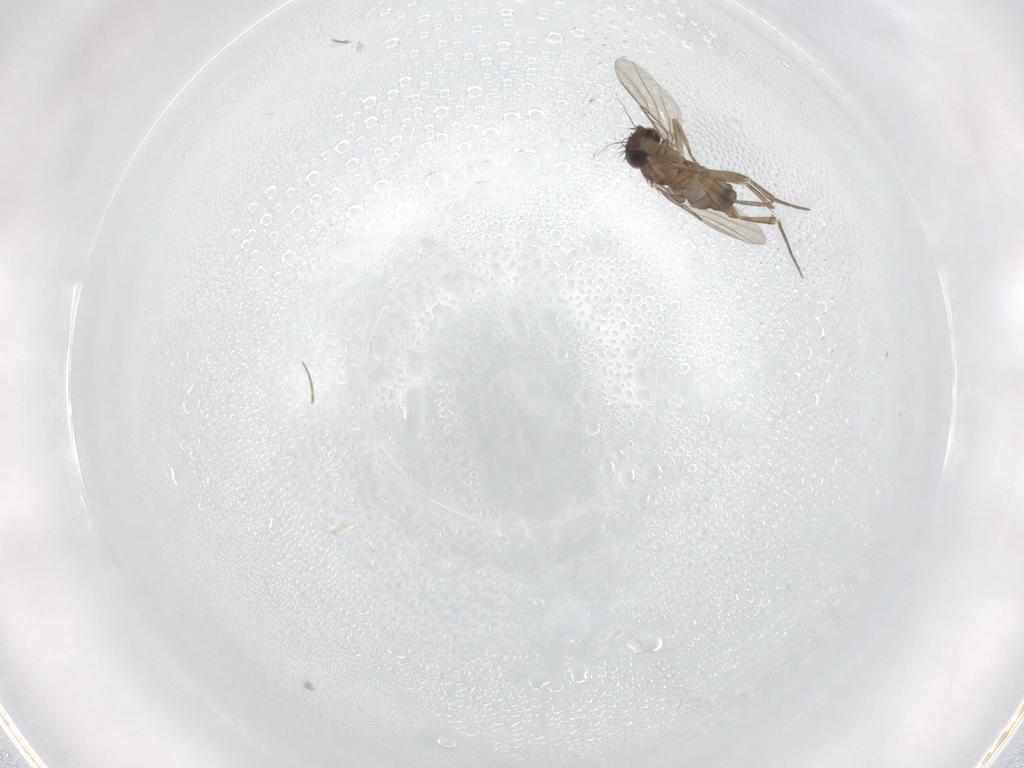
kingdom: Animalia
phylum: Arthropoda
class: Insecta
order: Diptera
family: Phoridae
